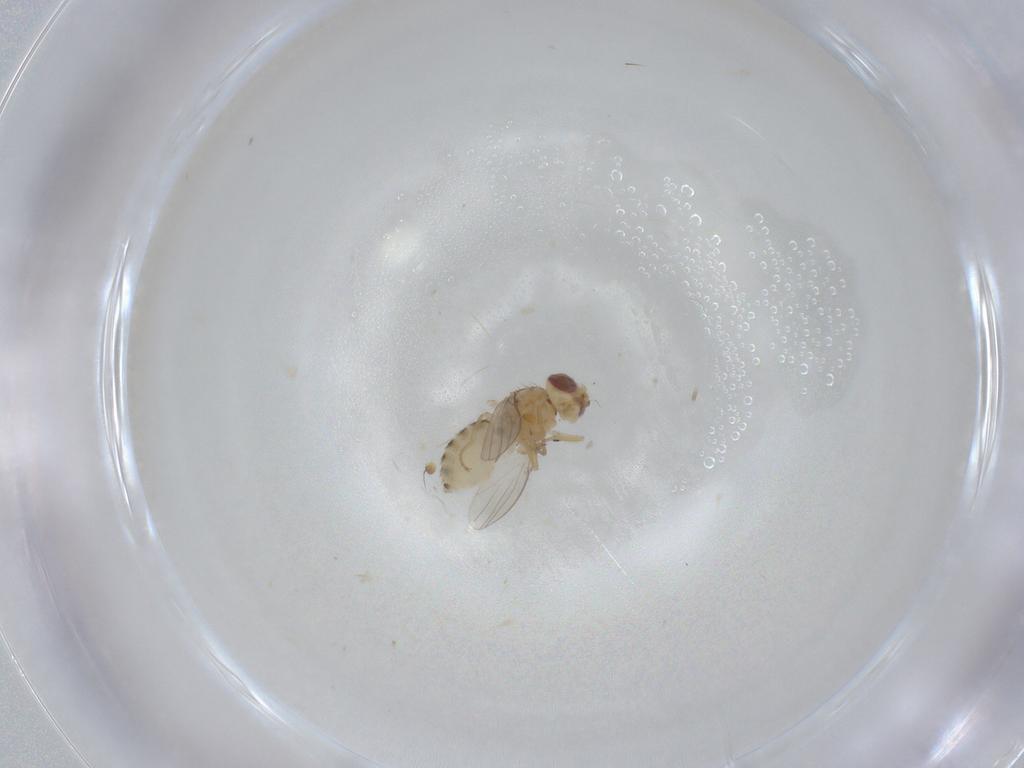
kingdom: Animalia
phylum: Arthropoda
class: Insecta
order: Diptera
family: Chyromyidae
